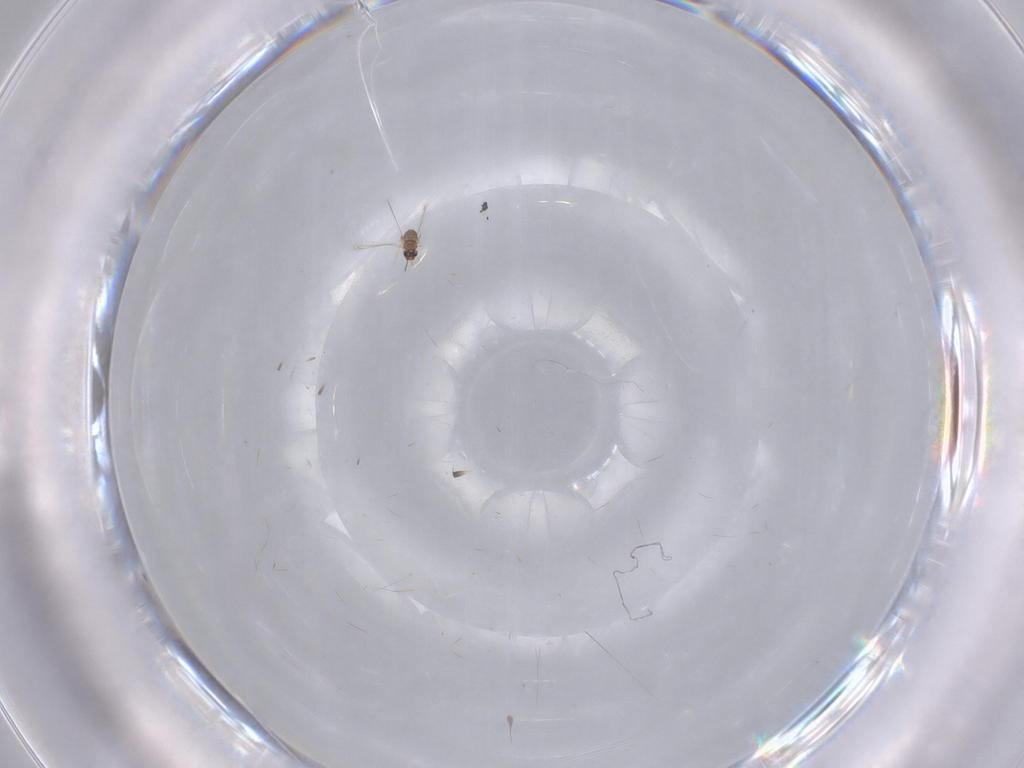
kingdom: Animalia
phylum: Arthropoda
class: Insecta
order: Hymenoptera
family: Mymaridae
